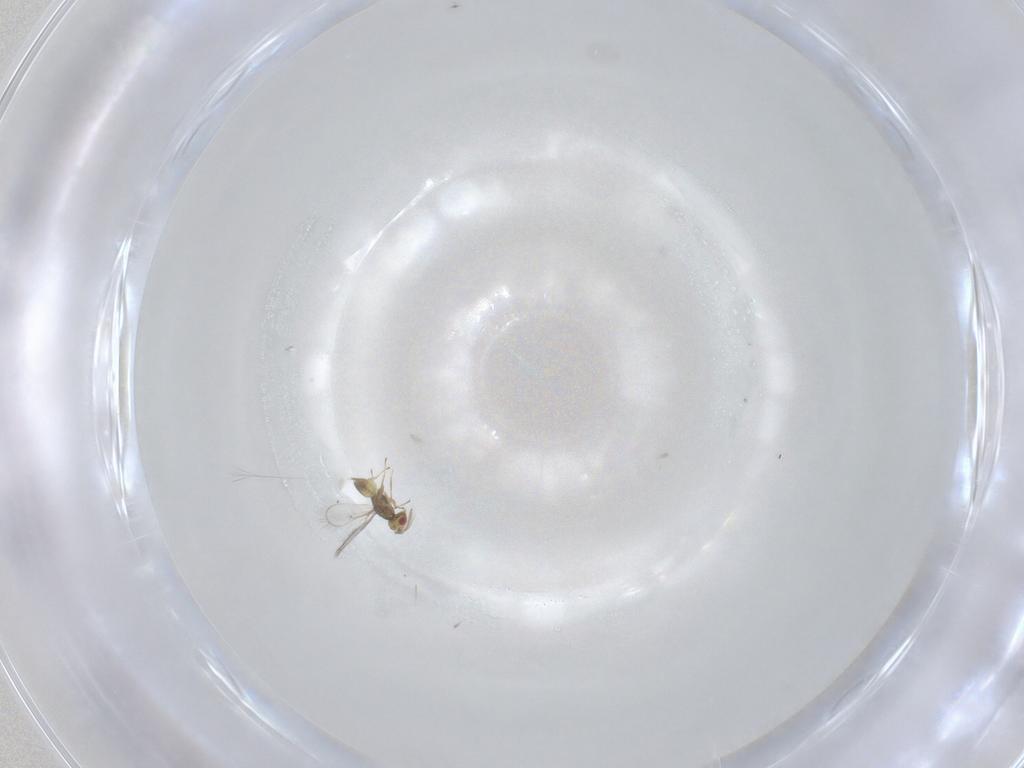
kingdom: Animalia
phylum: Arthropoda
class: Insecta
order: Hymenoptera
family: Eulophidae
